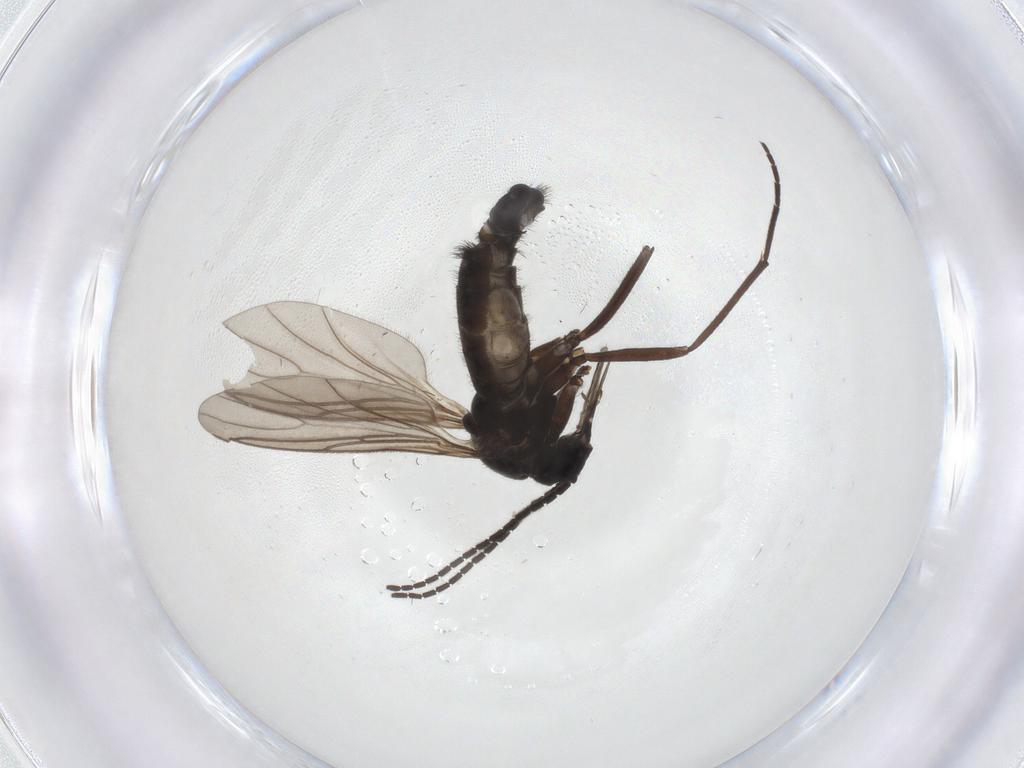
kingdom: Animalia
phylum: Arthropoda
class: Insecta
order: Diptera
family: Sciaridae
